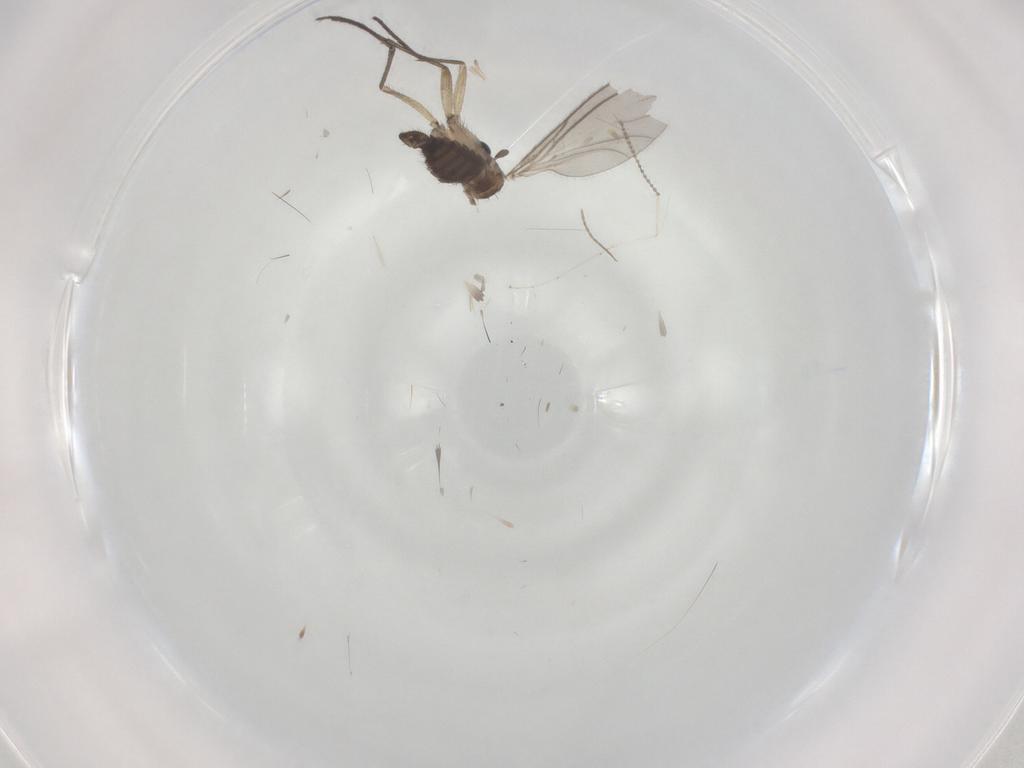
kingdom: Animalia
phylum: Arthropoda
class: Insecta
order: Diptera
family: Sciaridae
